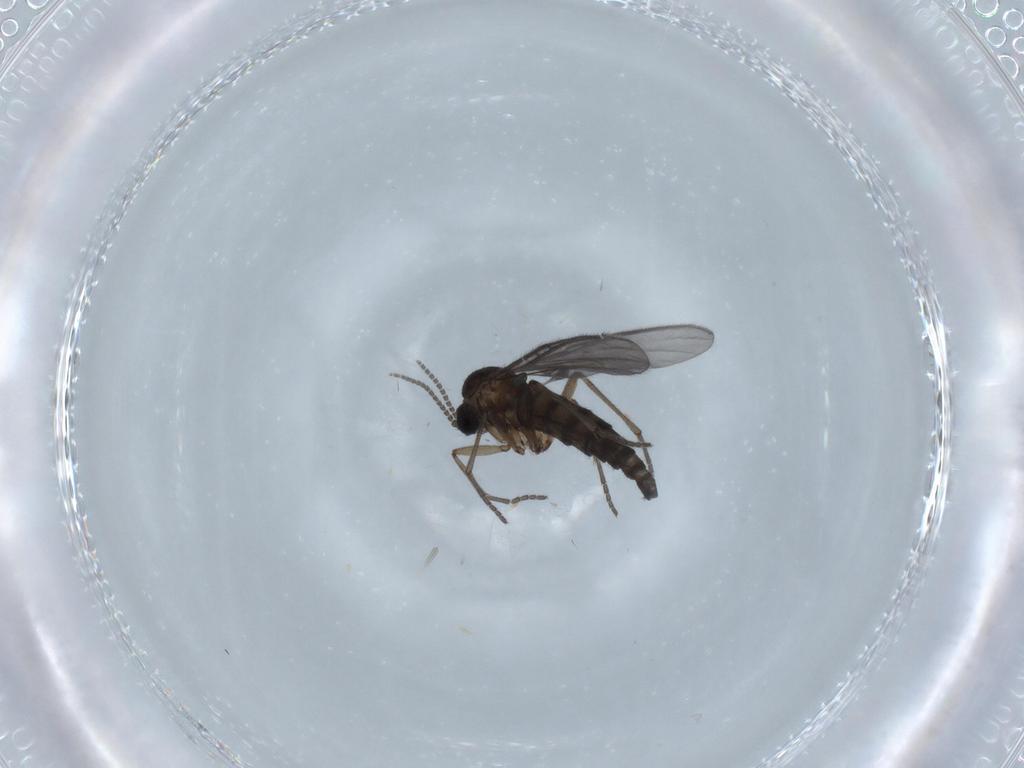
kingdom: Animalia
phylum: Arthropoda
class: Insecta
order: Diptera
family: Sciaridae
